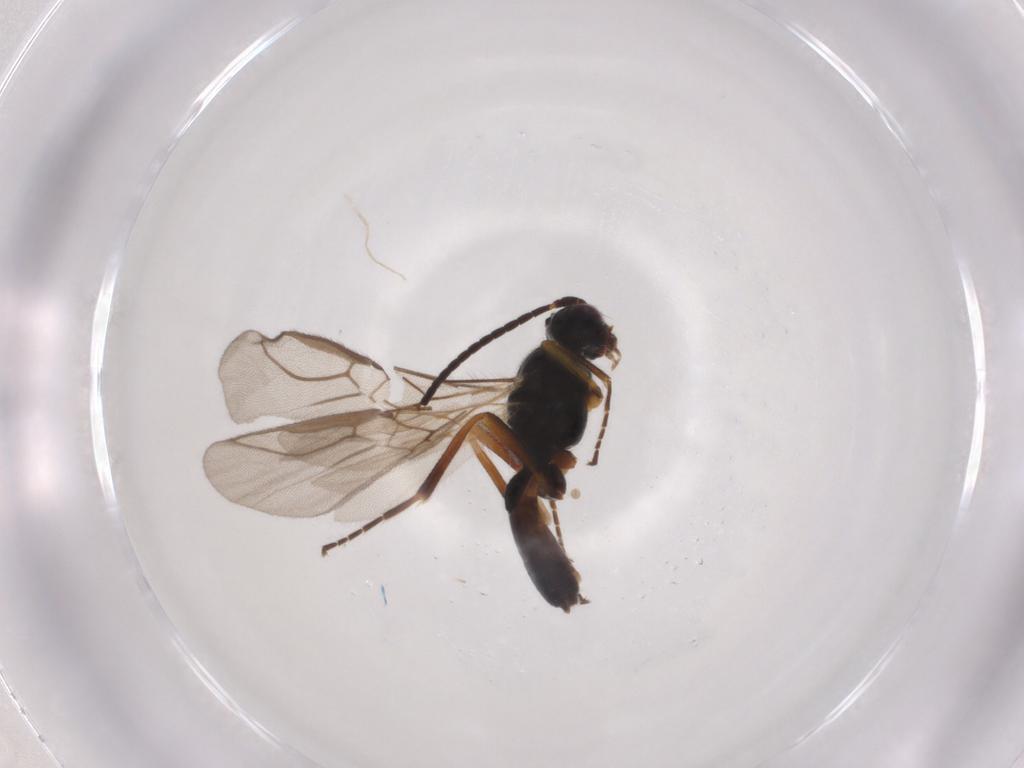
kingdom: Animalia
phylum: Arthropoda
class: Insecta
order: Hymenoptera
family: Braconidae
